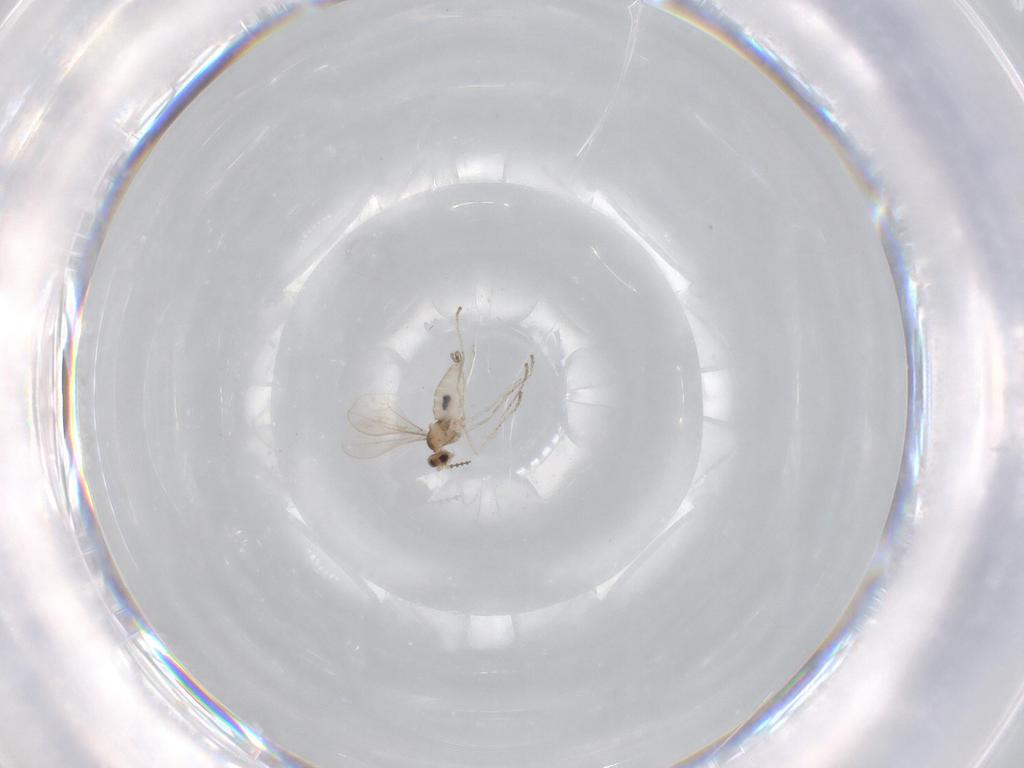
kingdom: Animalia
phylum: Arthropoda
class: Insecta
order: Diptera
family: Cecidomyiidae
